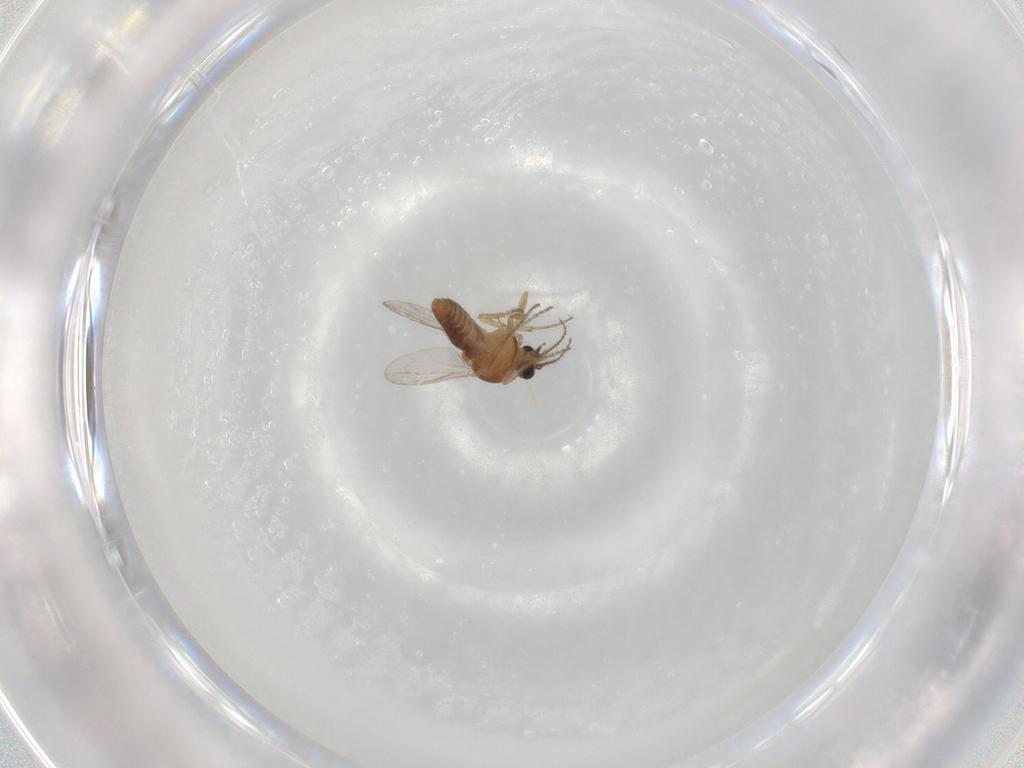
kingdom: Animalia
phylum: Arthropoda
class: Insecta
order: Diptera
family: Ceratopogonidae
